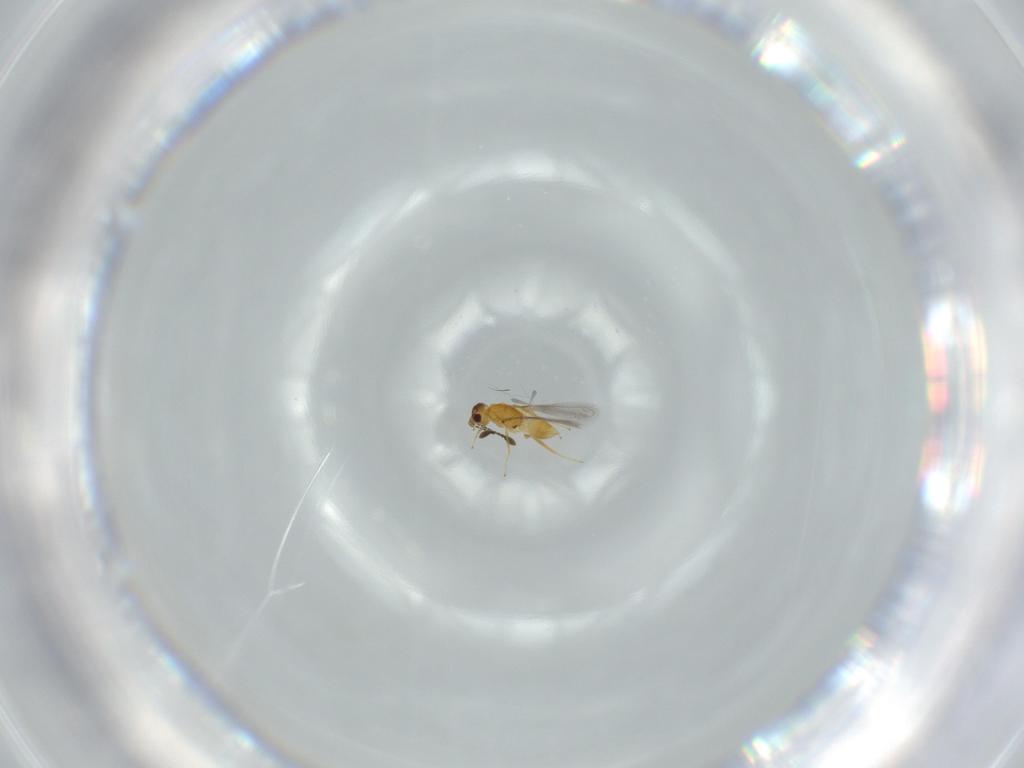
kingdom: Animalia
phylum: Arthropoda
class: Insecta
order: Hymenoptera
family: Mymaridae
